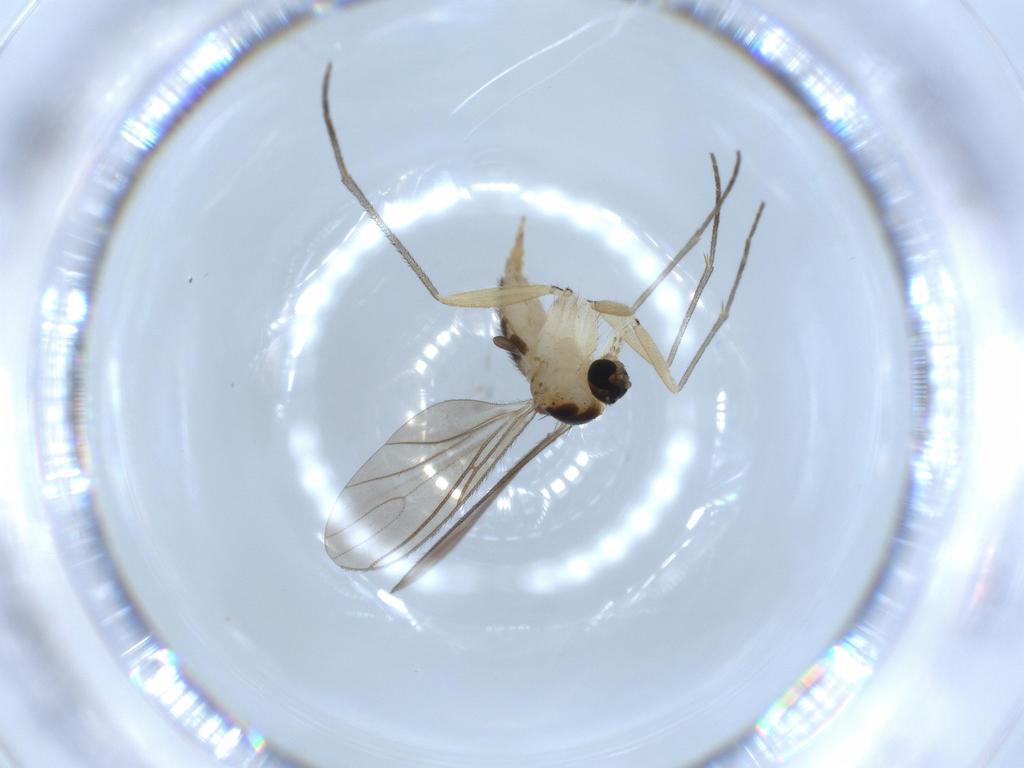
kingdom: Animalia
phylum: Arthropoda
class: Insecta
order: Diptera
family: Sciaridae
